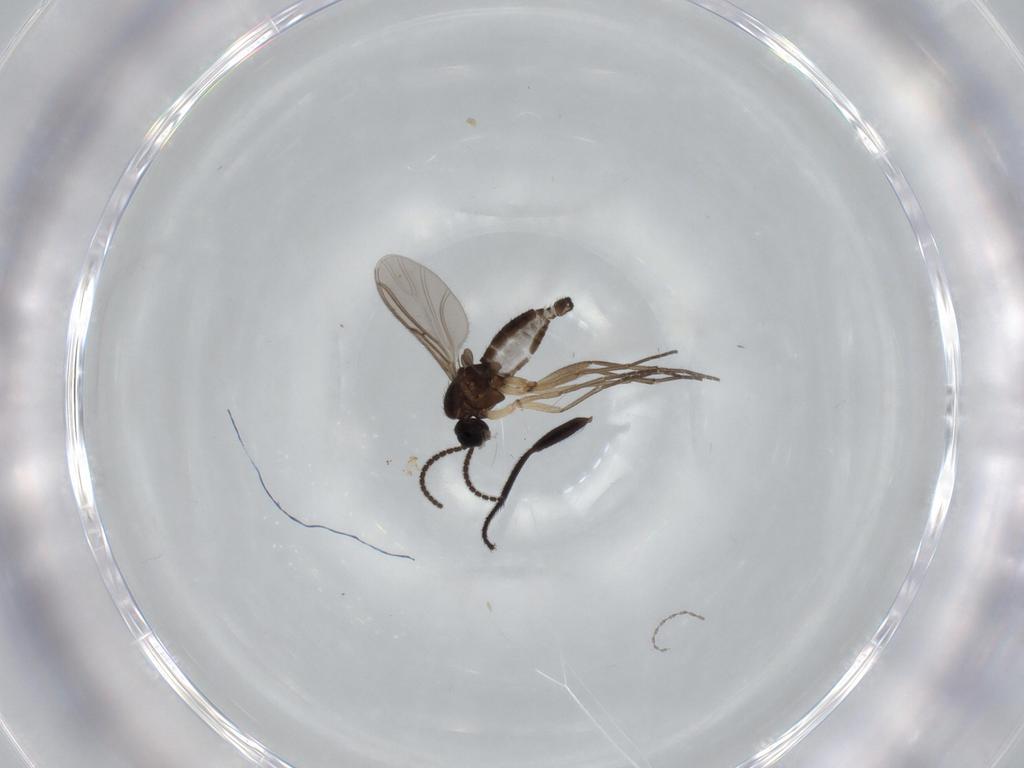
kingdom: Animalia
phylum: Arthropoda
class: Insecta
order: Diptera
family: Sciaridae
